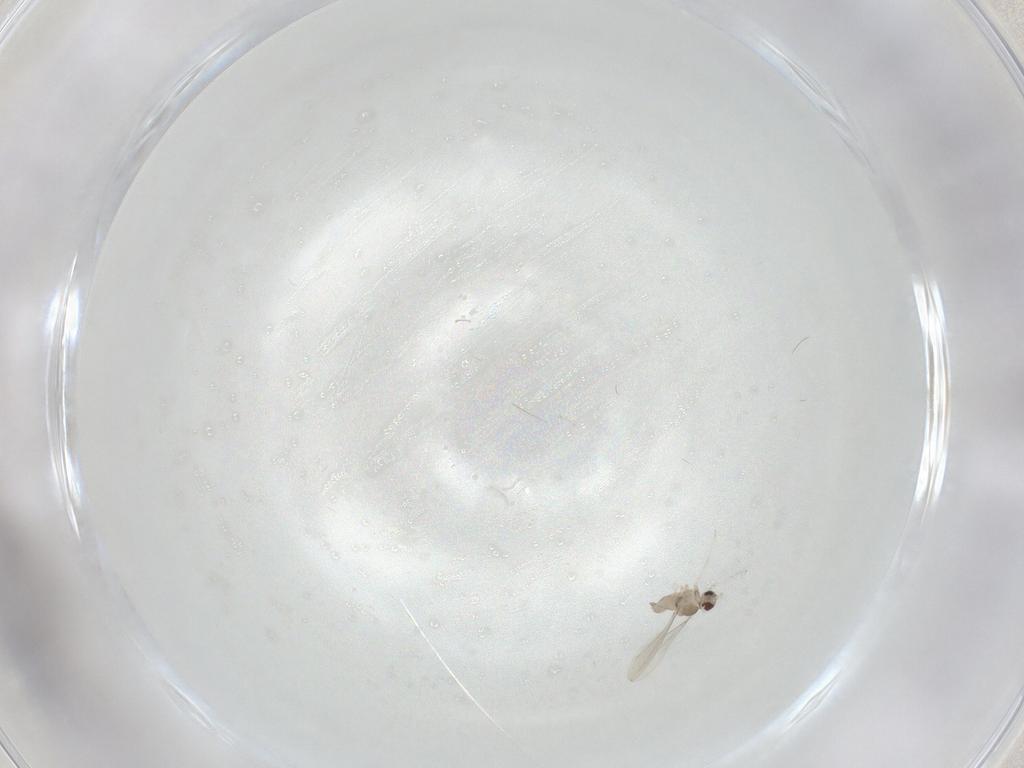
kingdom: Animalia
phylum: Arthropoda
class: Insecta
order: Diptera
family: Cecidomyiidae
